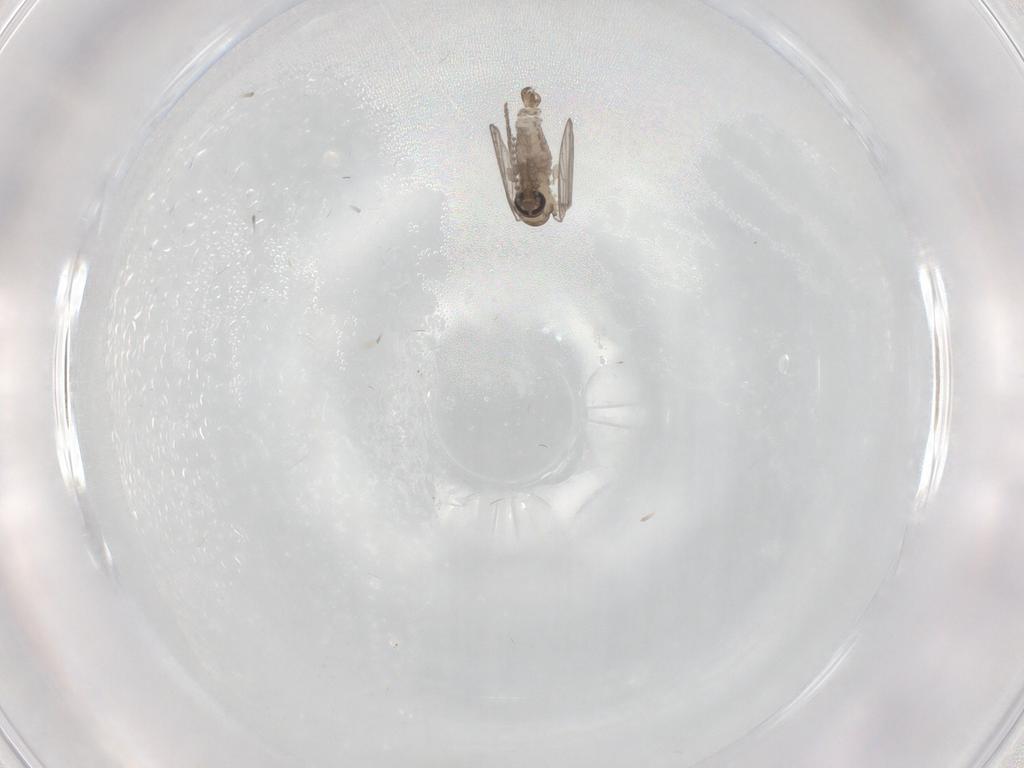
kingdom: Animalia
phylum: Arthropoda
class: Insecta
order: Diptera
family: Psychodidae
